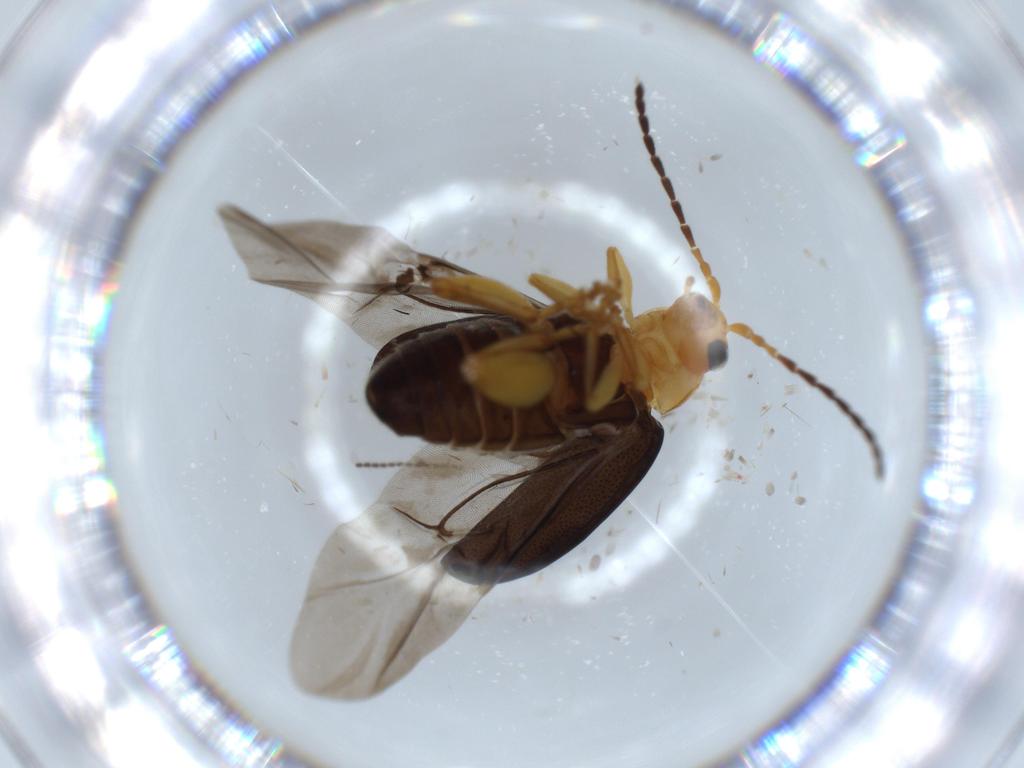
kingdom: Animalia
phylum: Arthropoda
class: Insecta
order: Coleoptera
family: Chrysomelidae
